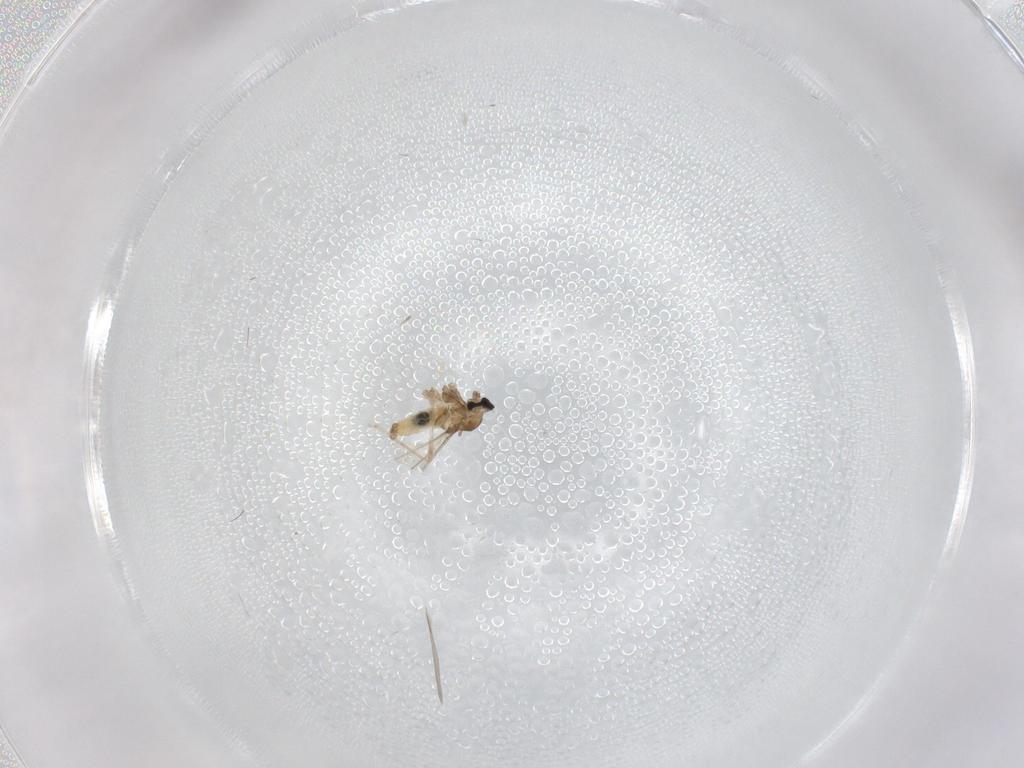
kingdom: Animalia
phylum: Arthropoda
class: Insecta
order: Diptera
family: Cecidomyiidae
